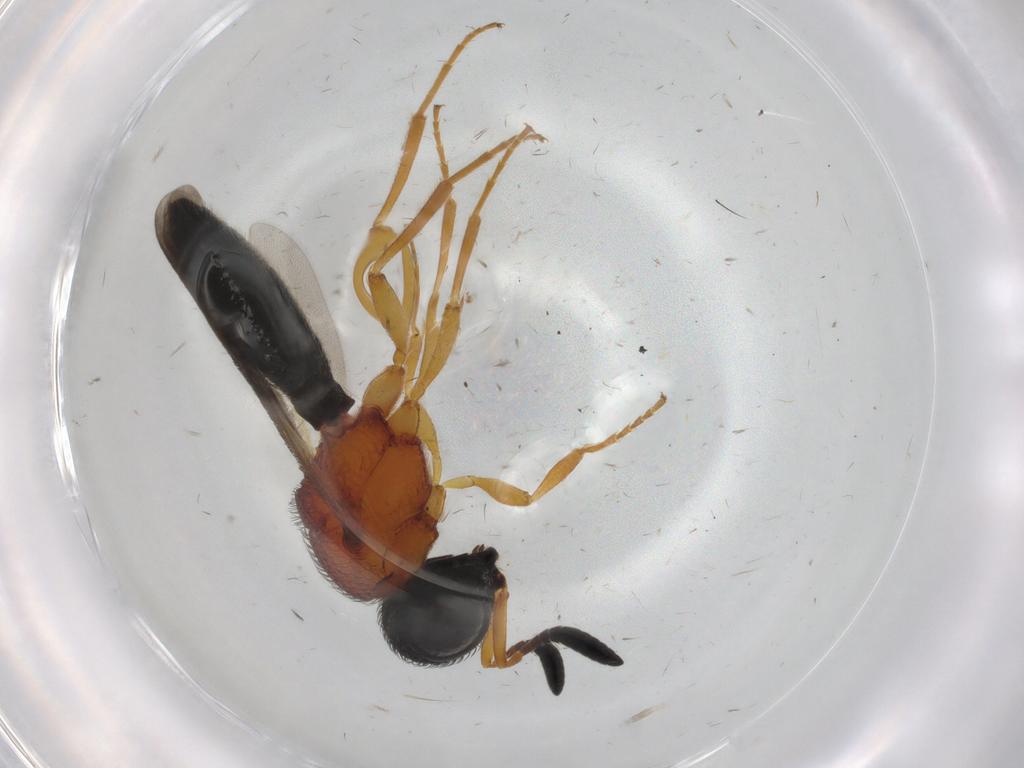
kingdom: Animalia
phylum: Arthropoda
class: Insecta
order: Hymenoptera
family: Scelionidae
